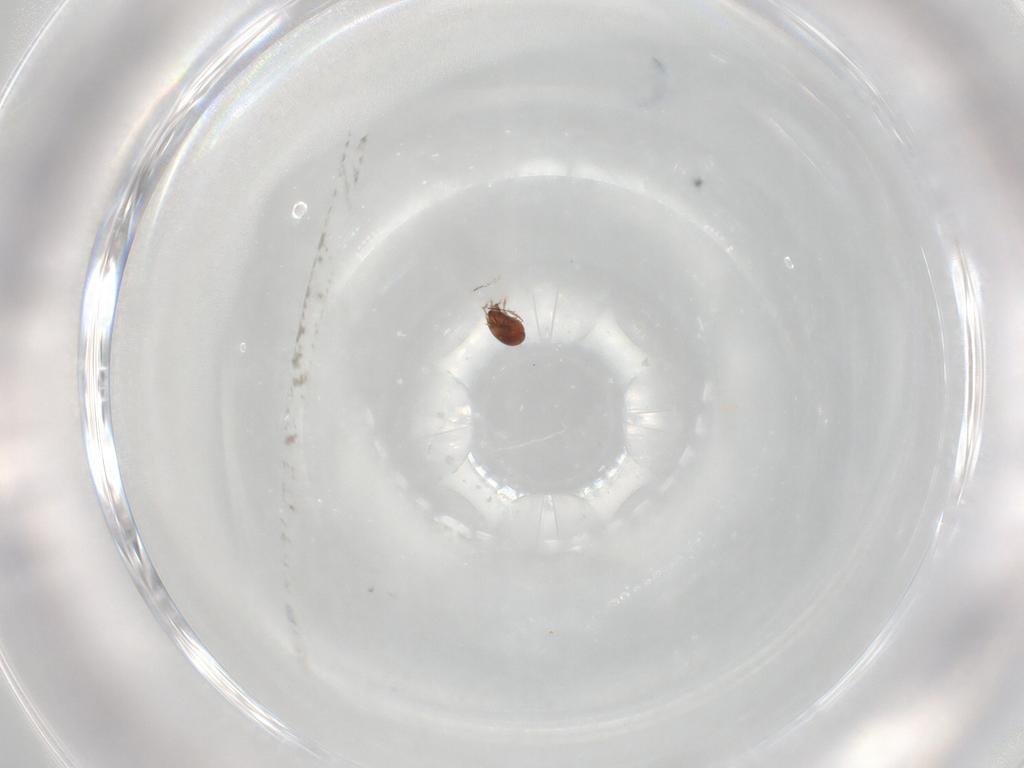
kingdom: Animalia
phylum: Arthropoda
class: Arachnida
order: Sarcoptiformes
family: Tegoribatidae
